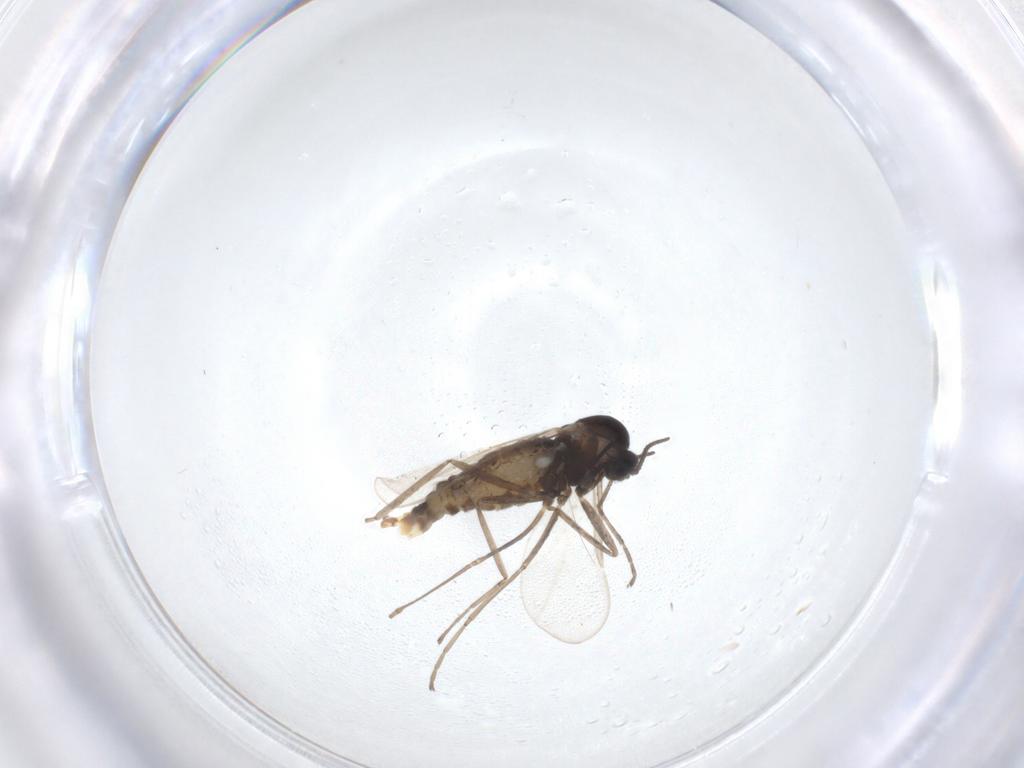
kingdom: Animalia
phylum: Arthropoda
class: Insecta
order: Diptera
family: Cecidomyiidae
